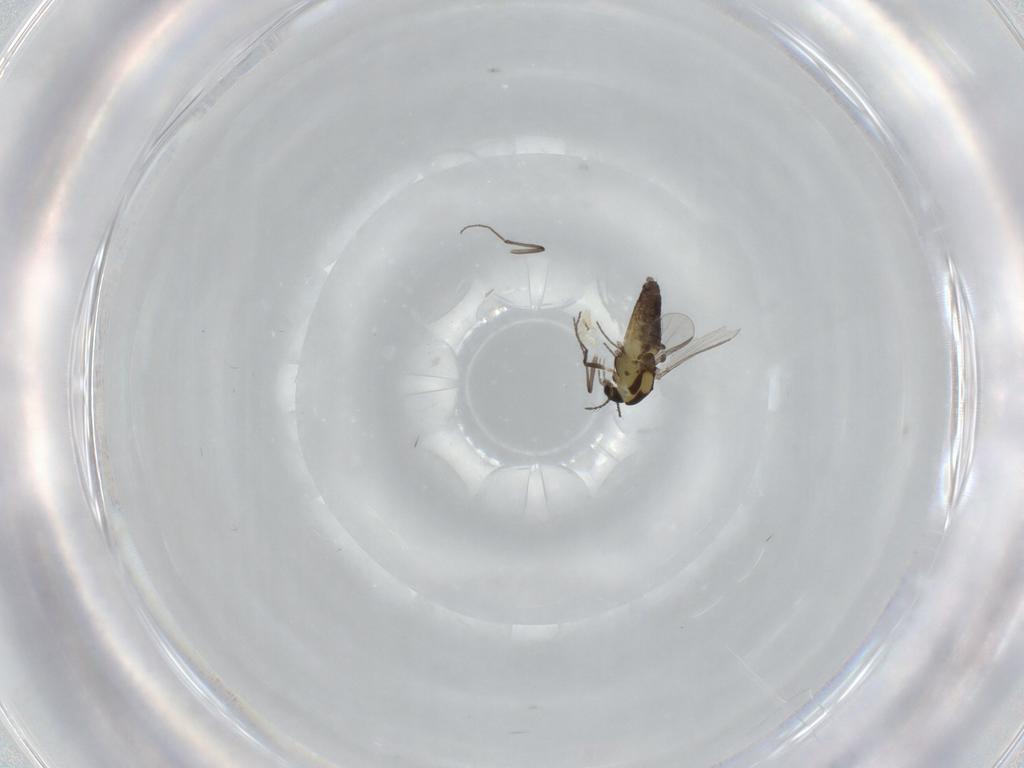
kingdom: Animalia
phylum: Arthropoda
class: Insecta
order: Diptera
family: Chironomidae
